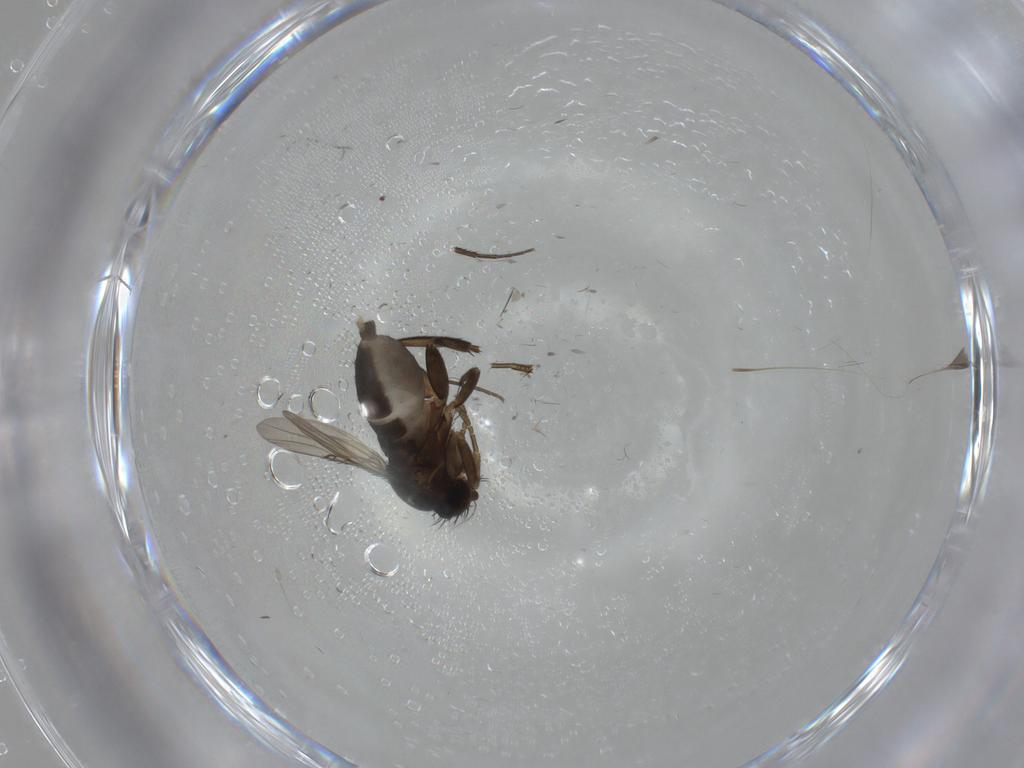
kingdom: Animalia
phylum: Arthropoda
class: Insecta
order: Diptera
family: Phoridae
